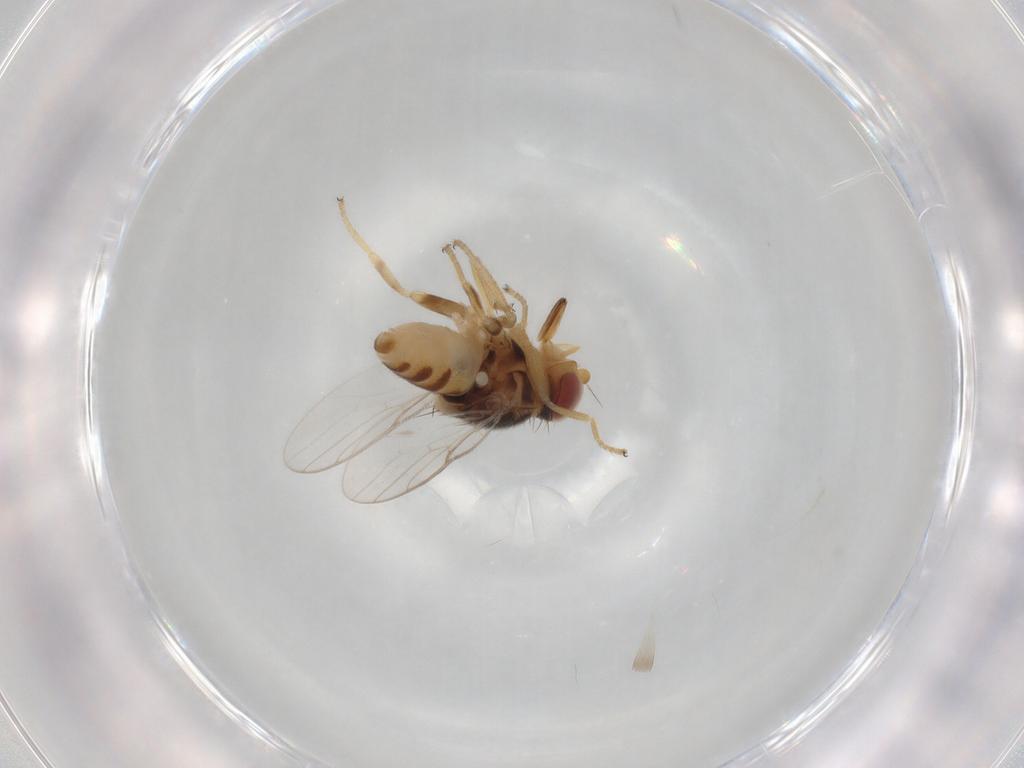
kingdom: Animalia
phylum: Arthropoda
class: Insecta
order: Diptera
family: Chloropidae
